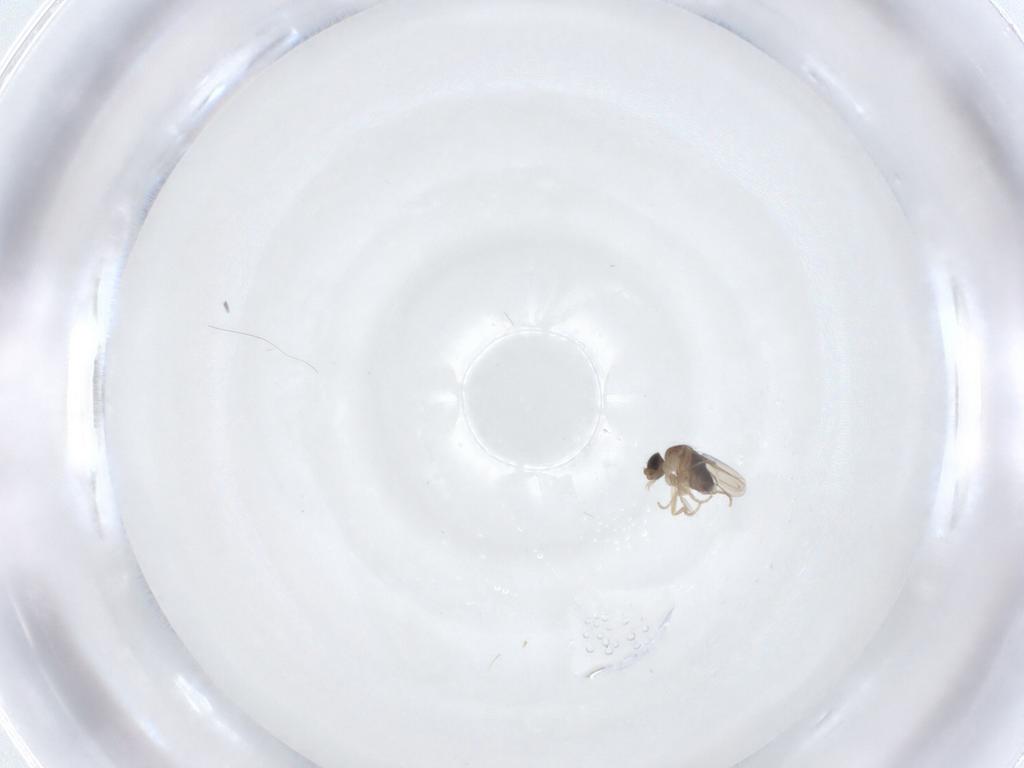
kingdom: Animalia
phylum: Arthropoda
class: Insecta
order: Diptera
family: Phoridae
